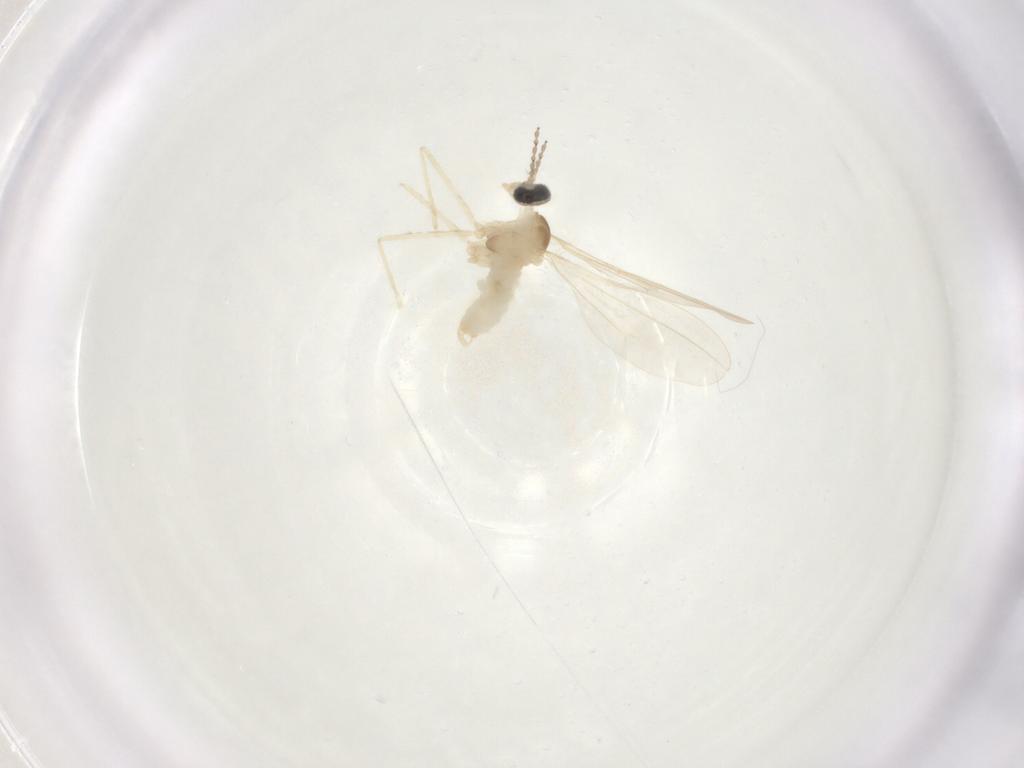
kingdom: Animalia
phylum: Arthropoda
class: Insecta
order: Diptera
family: Cecidomyiidae
